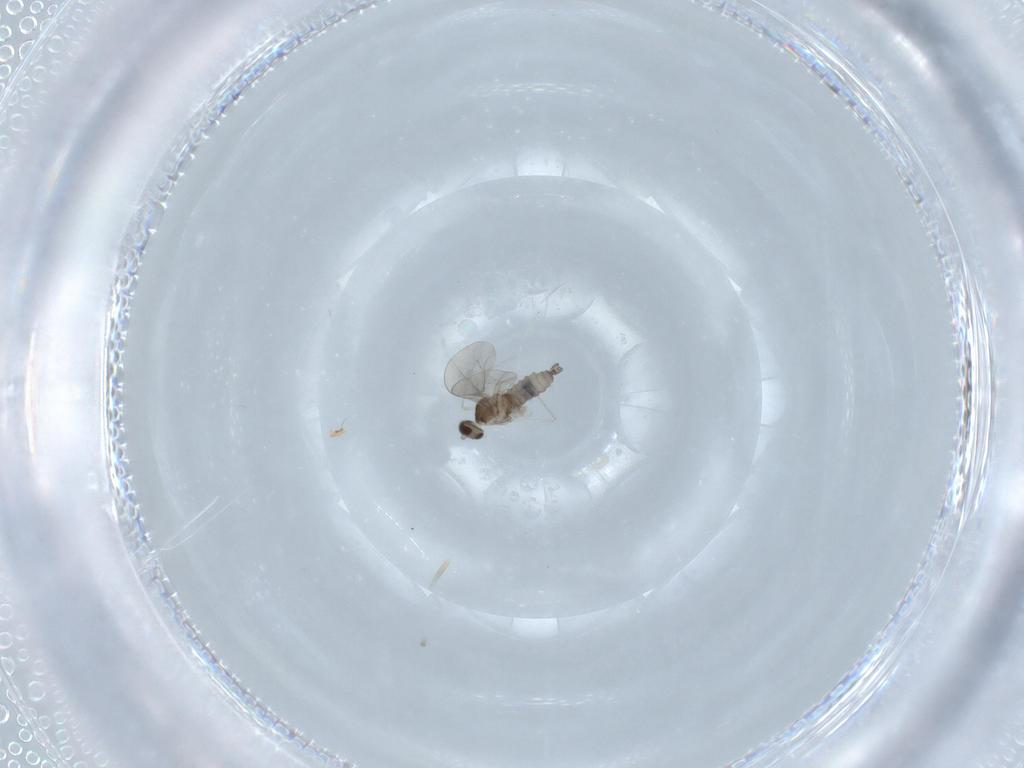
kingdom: Animalia
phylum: Arthropoda
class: Insecta
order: Diptera
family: Cecidomyiidae
